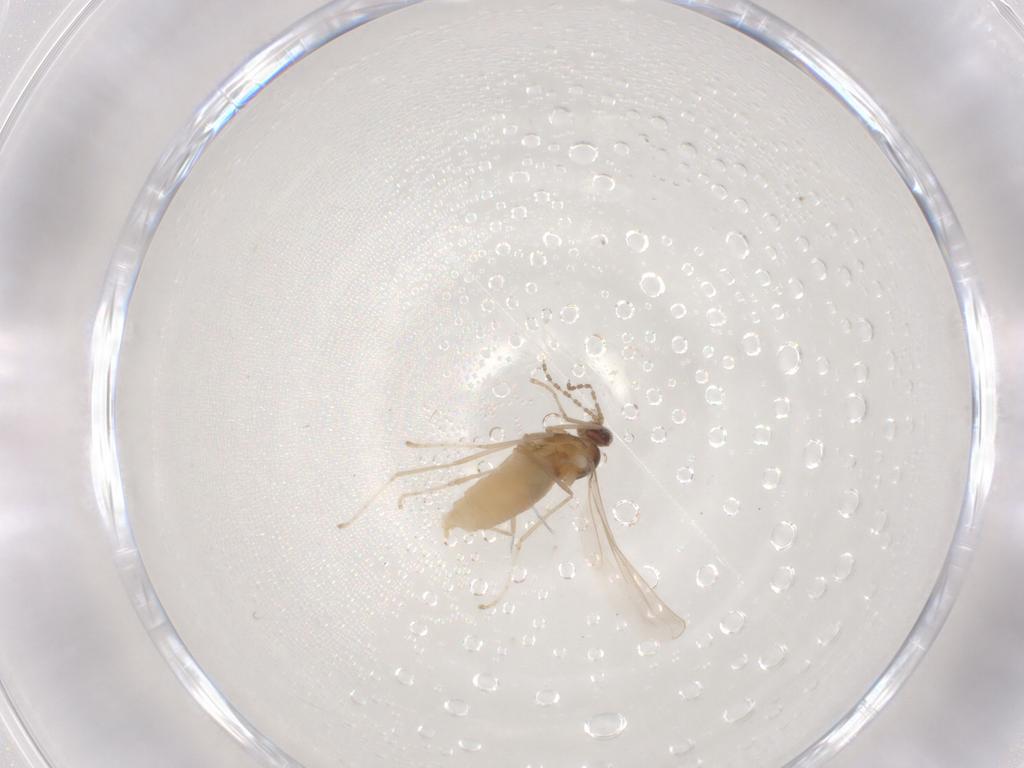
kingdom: Animalia
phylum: Arthropoda
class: Insecta
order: Diptera
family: Cecidomyiidae
